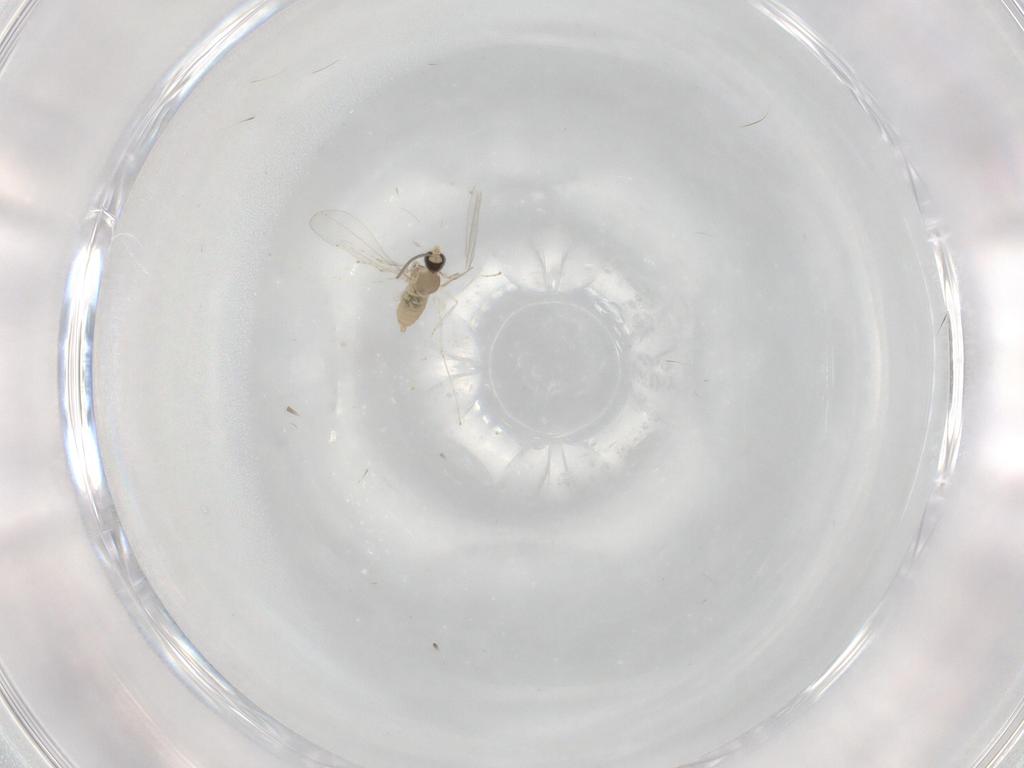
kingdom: Animalia
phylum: Arthropoda
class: Insecta
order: Diptera
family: Cecidomyiidae
